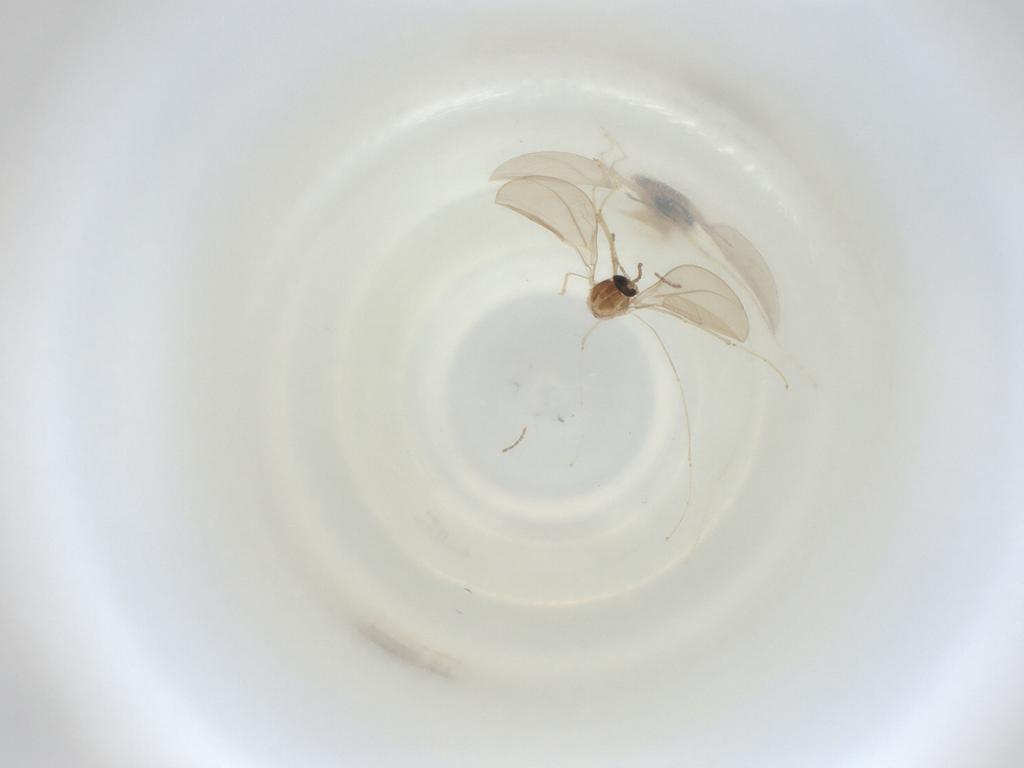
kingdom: Animalia
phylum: Arthropoda
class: Insecta
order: Diptera
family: Cecidomyiidae
